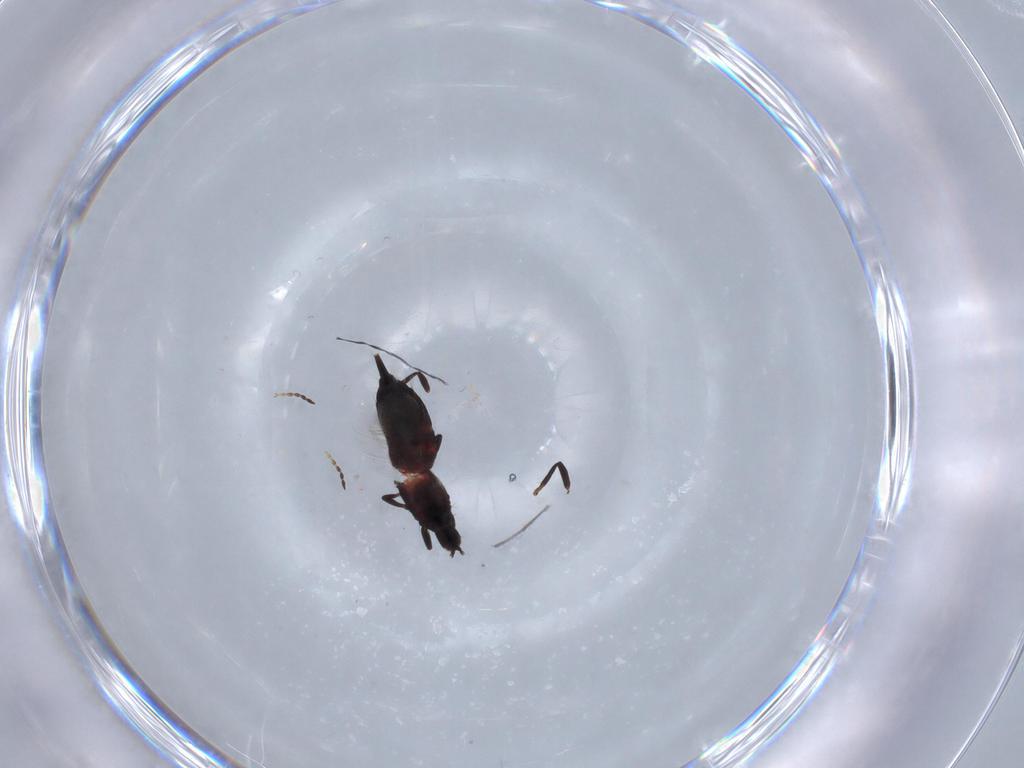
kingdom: Animalia
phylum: Arthropoda
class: Insecta
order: Thysanoptera
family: Phlaeothripidae
